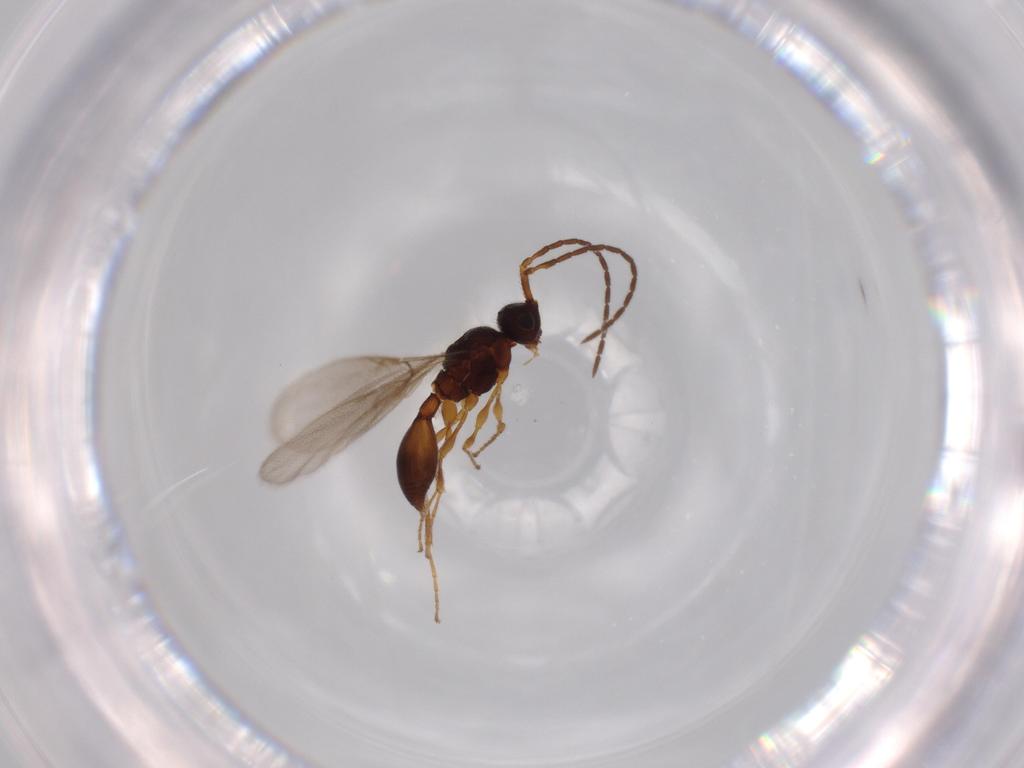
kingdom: Animalia
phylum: Arthropoda
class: Insecta
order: Hymenoptera
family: Diapriidae
